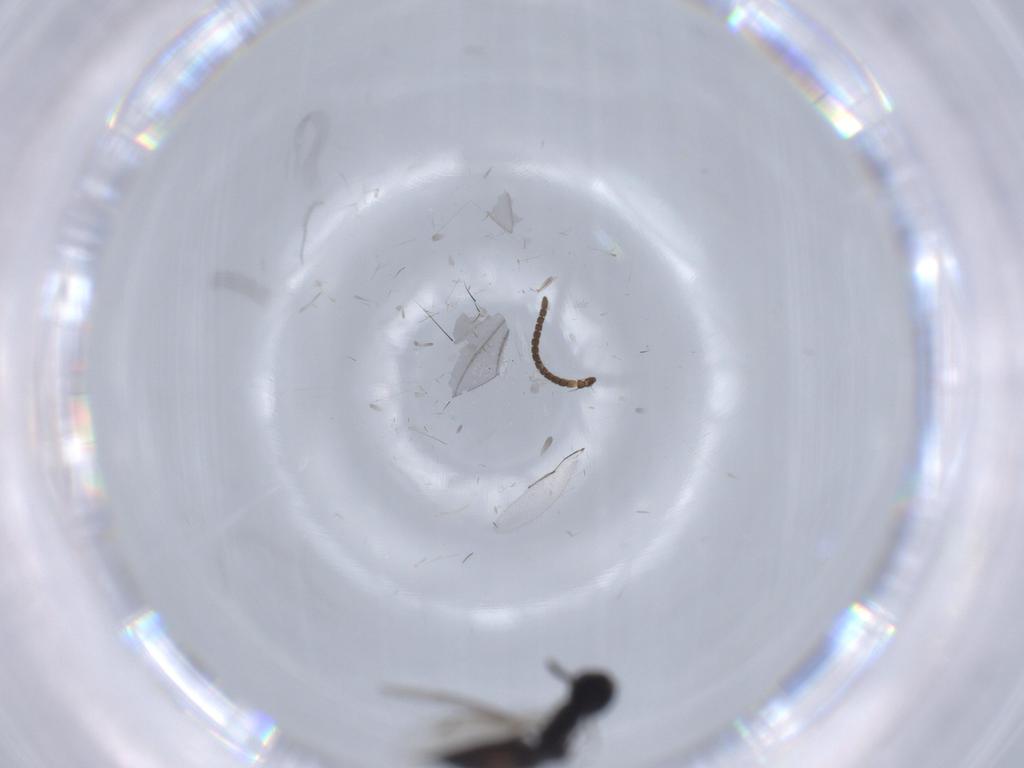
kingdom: Animalia
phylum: Arthropoda
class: Insecta
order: Hymenoptera
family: Pteromalidae
